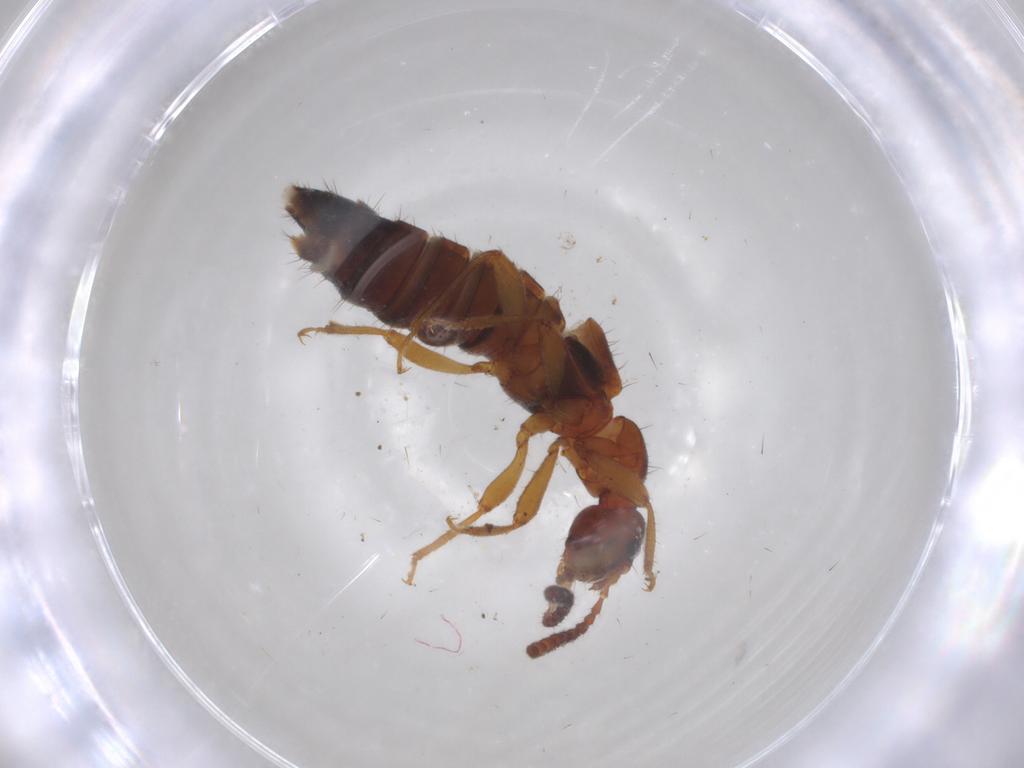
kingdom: Animalia
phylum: Arthropoda
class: Insecta
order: Coleoptera
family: Staphylinidae
